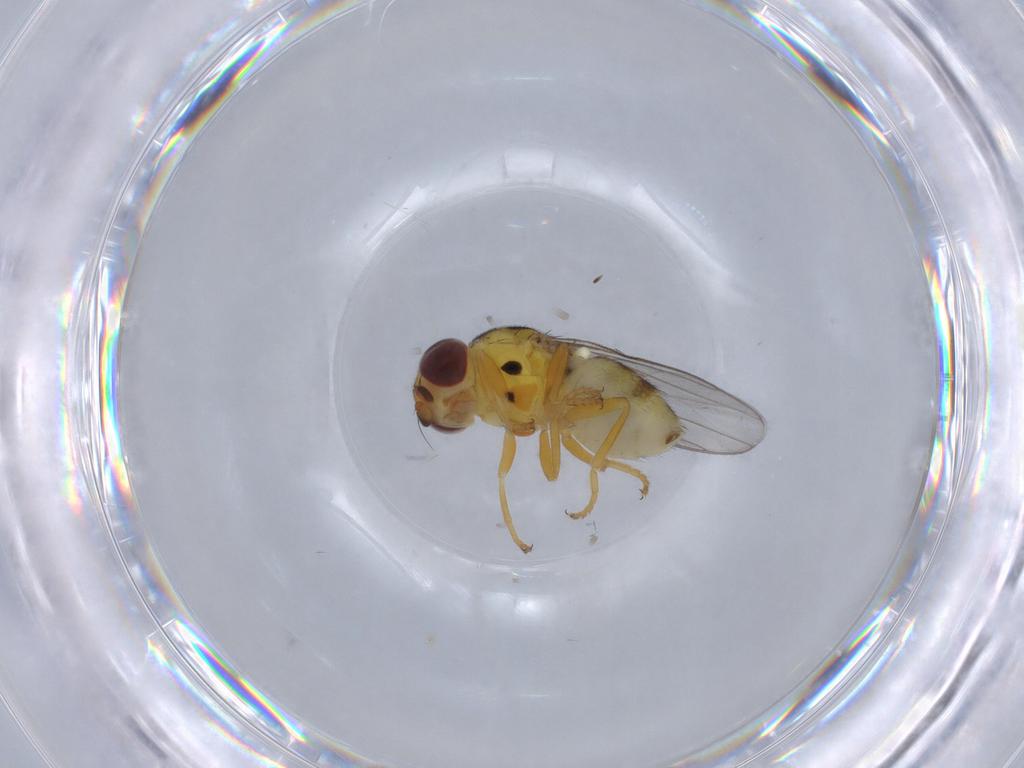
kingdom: Animalia
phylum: Arthropoda
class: Insecta
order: Diptera
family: Chloropidae
